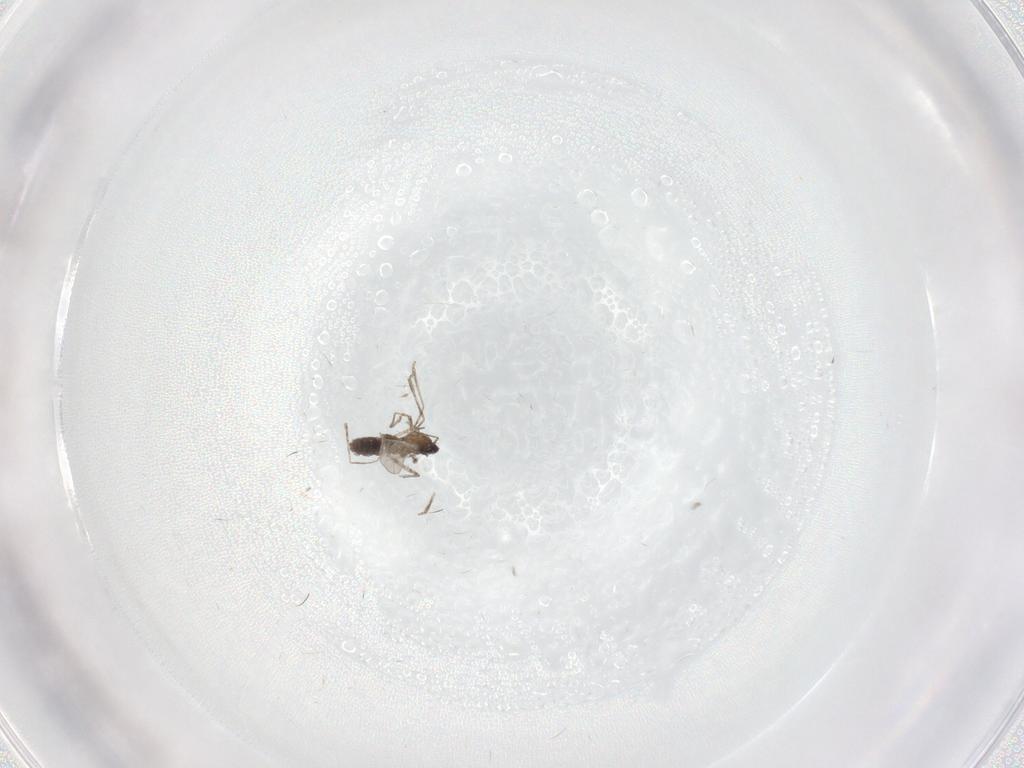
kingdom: Animalia
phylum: Arthropoda
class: Insecta
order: Diptera
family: Cecidomyiidae
